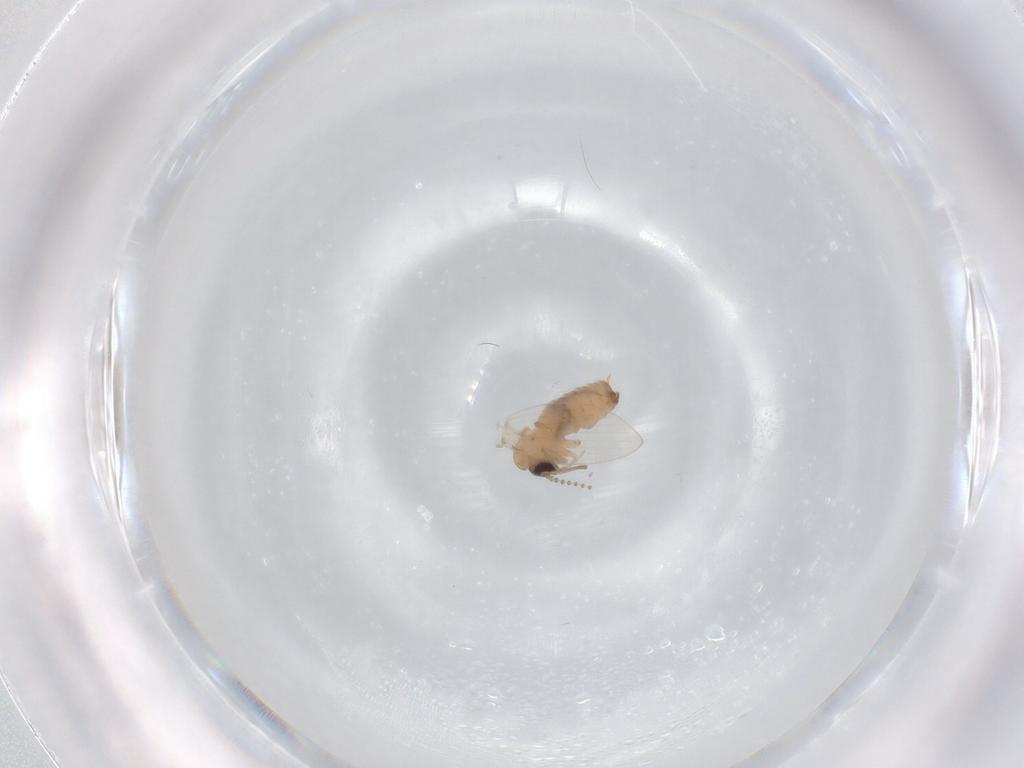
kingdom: Animalia
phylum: Arthropoda
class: Insecta
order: Diptera
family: Psychodidae
